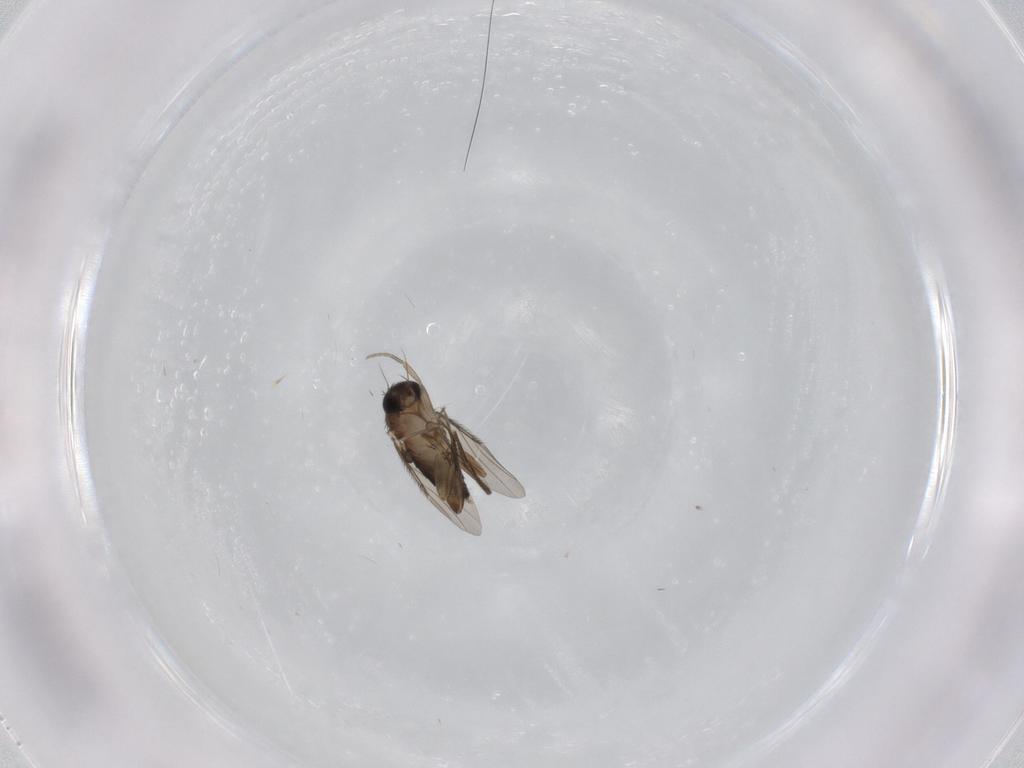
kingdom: Animalia
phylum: Arthropoda
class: Insecta
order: Diptera
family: Phoridae
